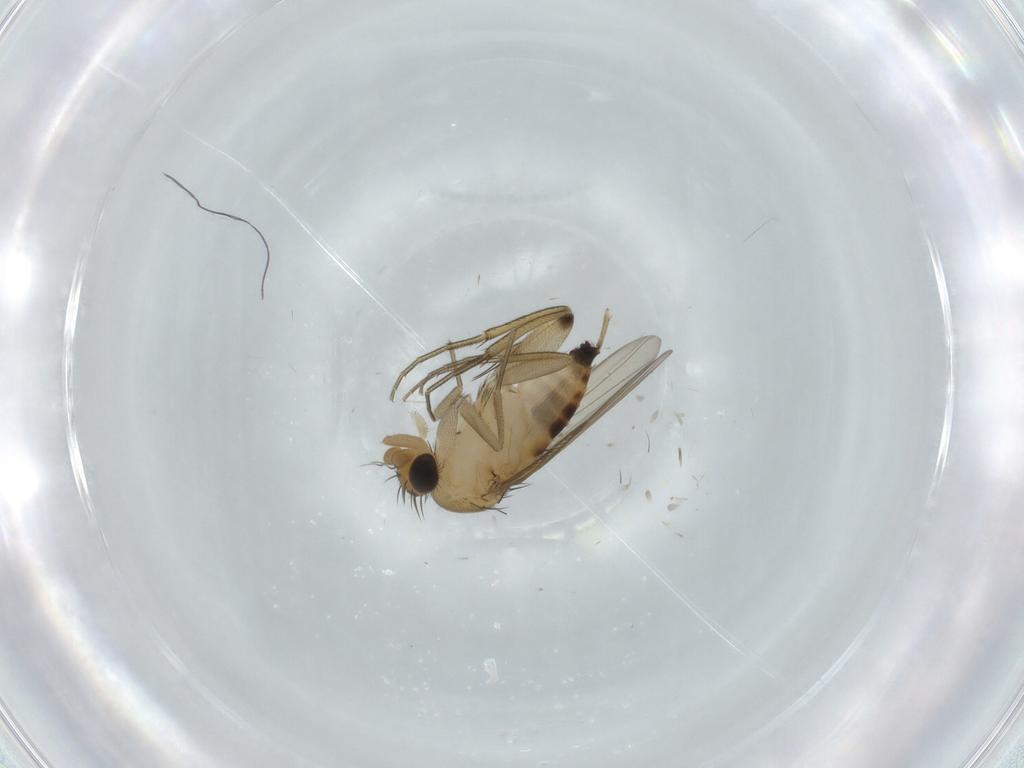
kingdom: Animalia
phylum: Arthropoda
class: Insecta
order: Diptera
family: Phoridae
